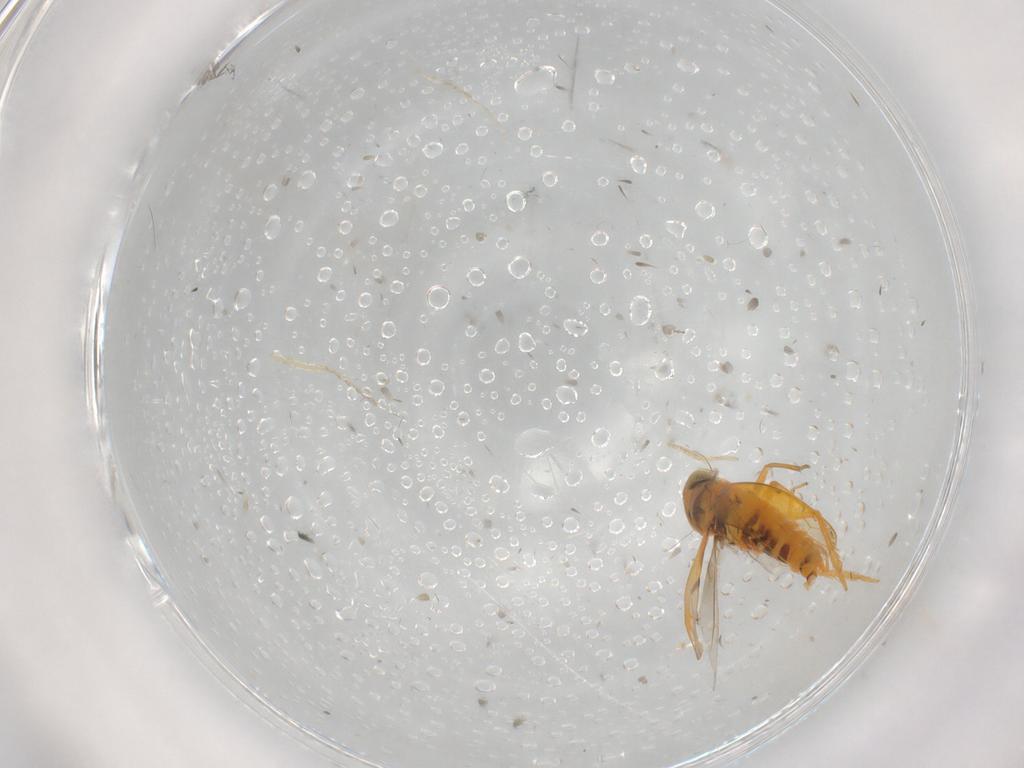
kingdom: Animalia
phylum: Arthropoda
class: Insecta
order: Hemiptera
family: Cicadellidae
